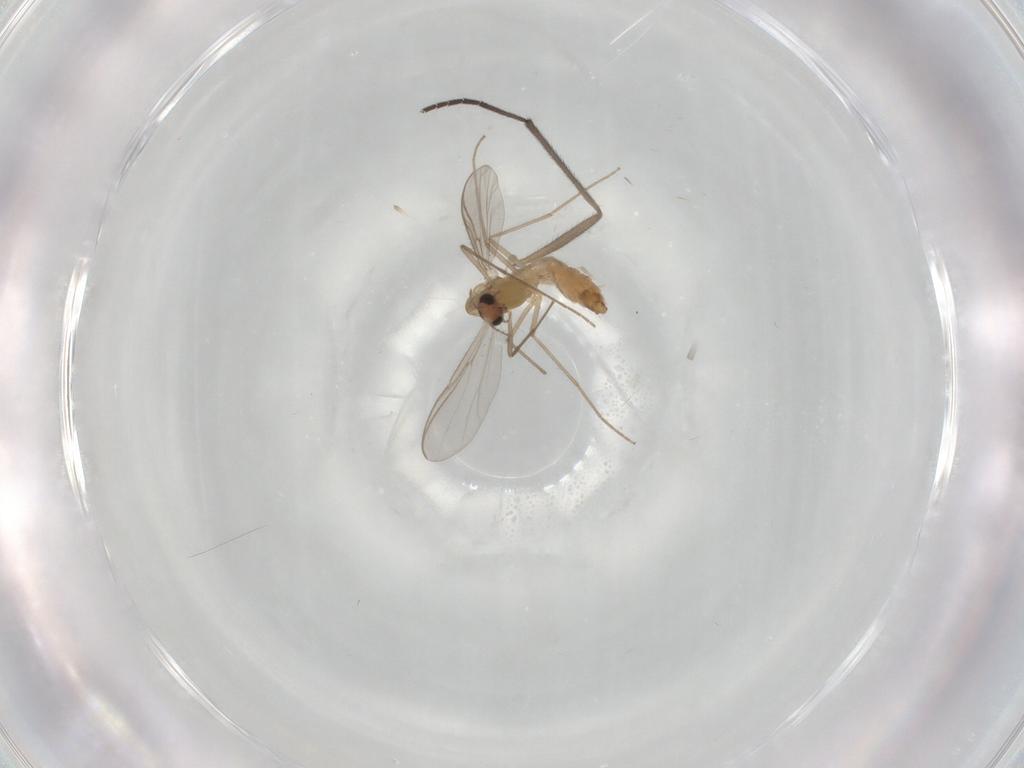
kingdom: Animalia
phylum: Arthropoda
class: Insecta
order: Diptera
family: Chironomidae
